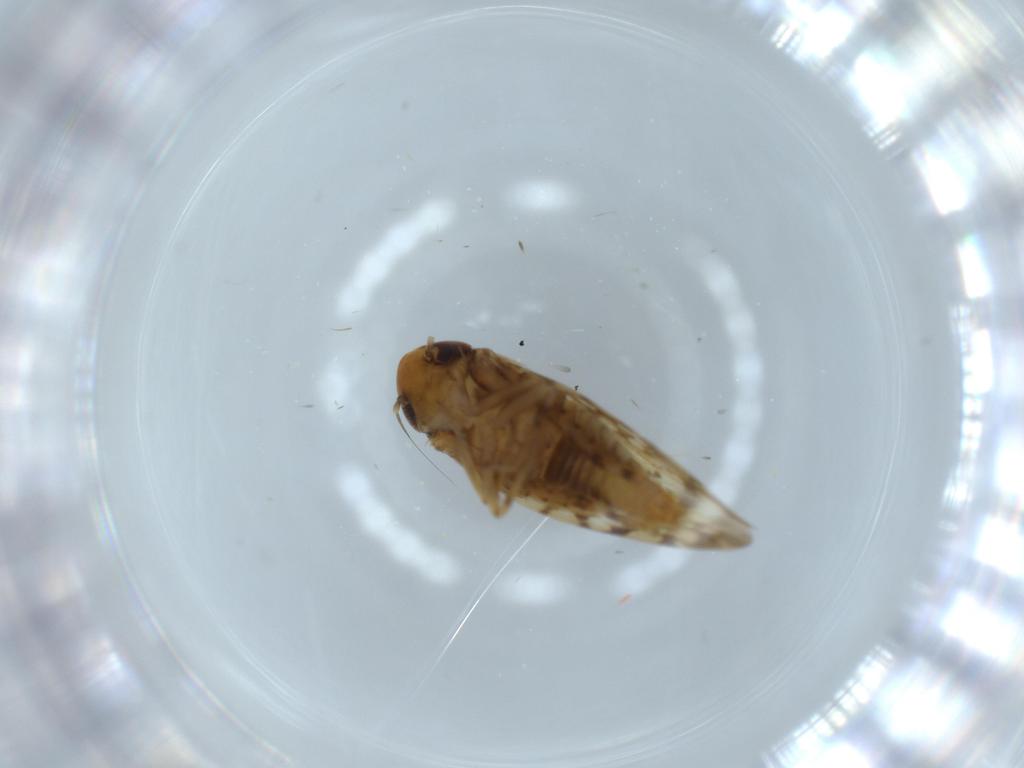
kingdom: Animalia
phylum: Arthropoda
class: Insecta
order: Hemiptera
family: Cicadellidae
